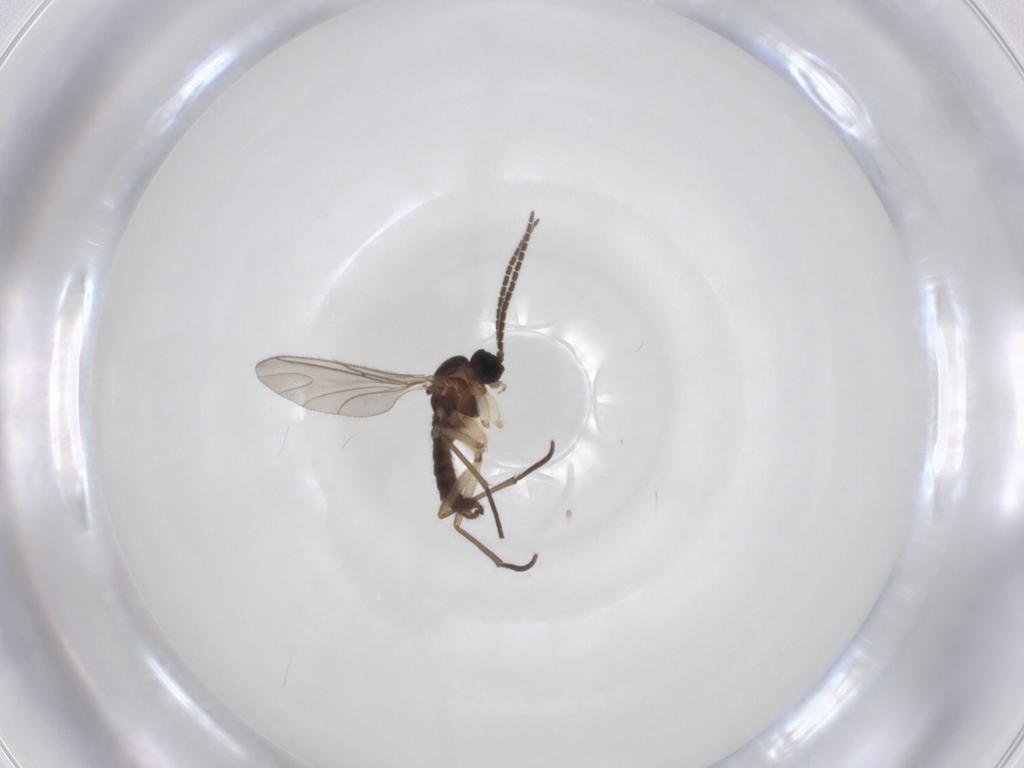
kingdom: Animalia
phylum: Arthropoda
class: Insecta
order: Diptera
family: Sciaridae
